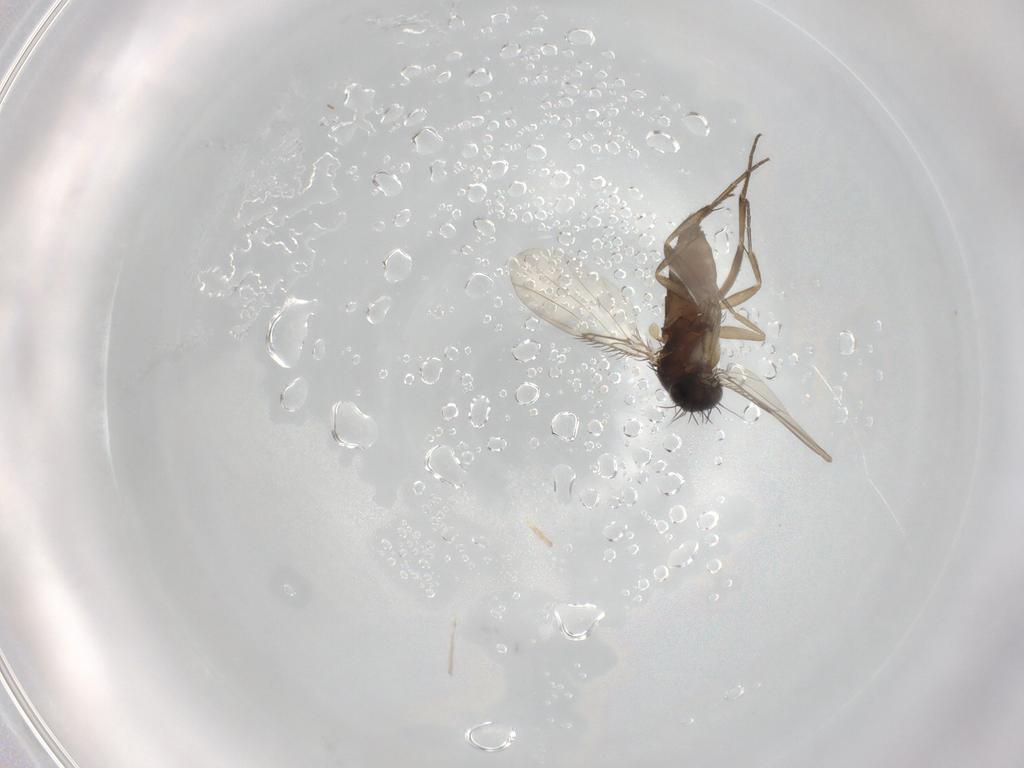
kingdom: Animalia
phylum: Arthropoda
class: Insecta
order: Diptera
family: Phoridae
